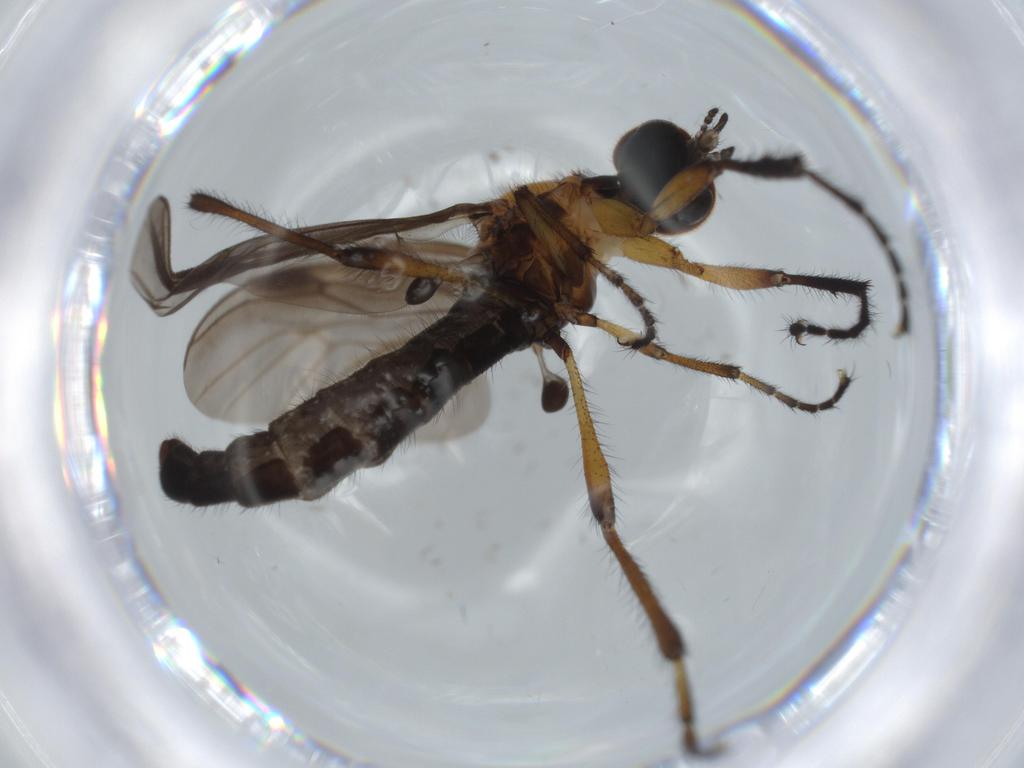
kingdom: Animalia
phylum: Arthropoda
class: Insecta
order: Diptera
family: Bibionidae
